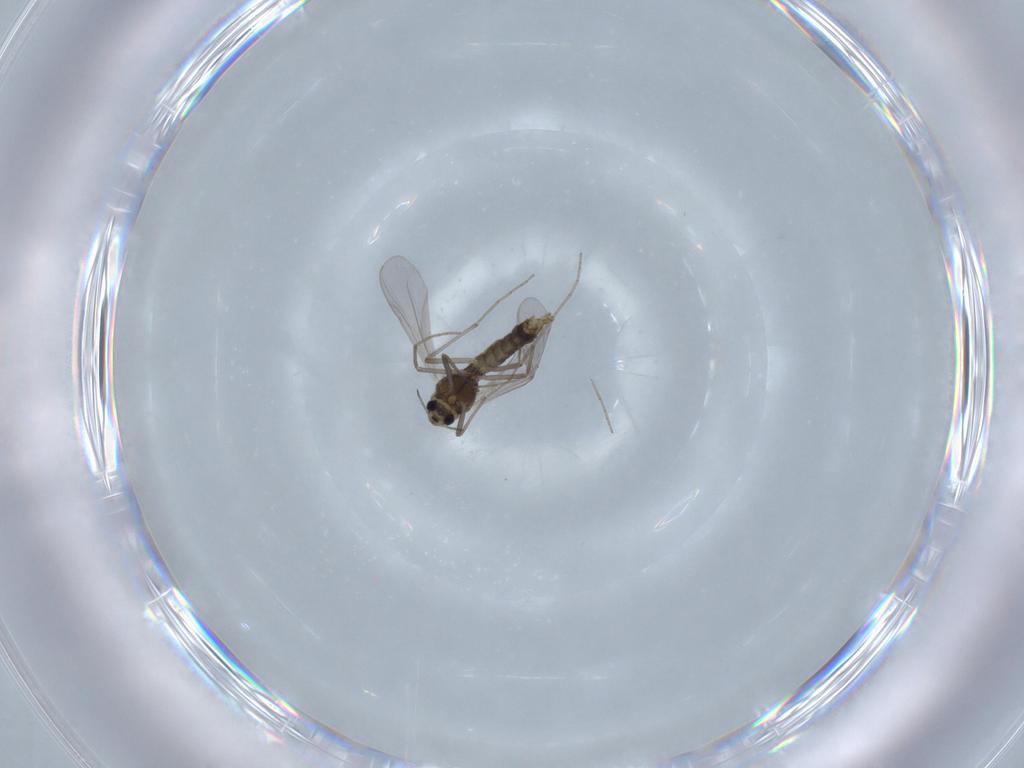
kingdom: Animalia
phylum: Arthropoda
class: Insecta
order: Diptera
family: Chironomidae
